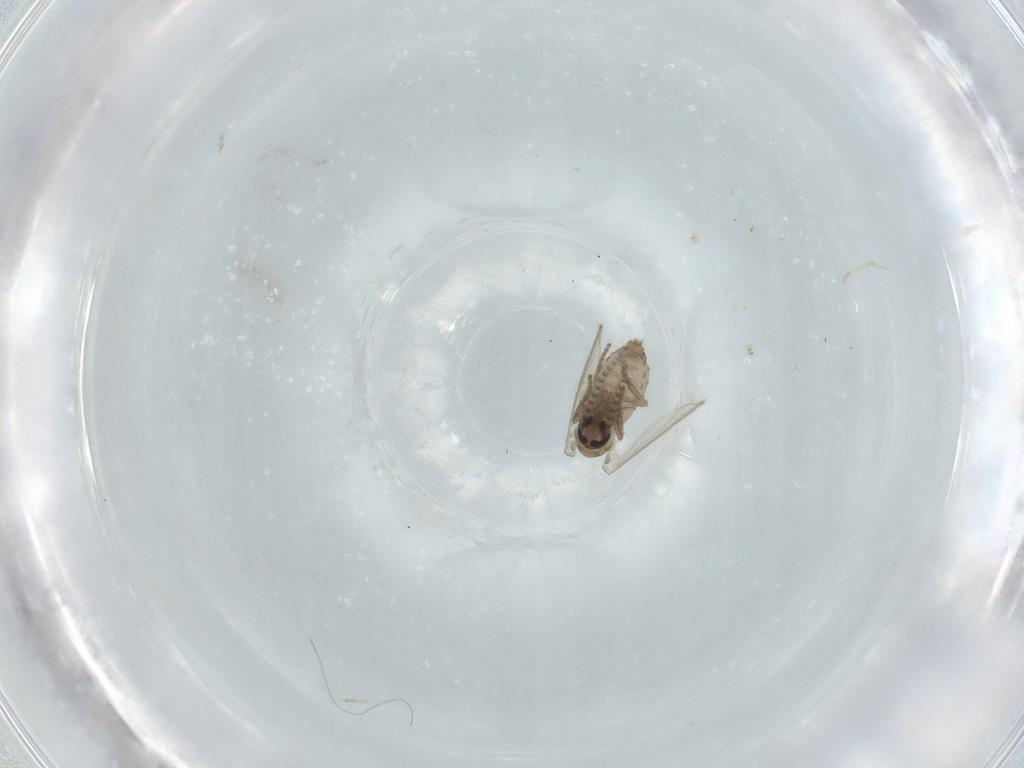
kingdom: Animalia
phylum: Arthropoda
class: Insecta
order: Diptera
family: Psychodidae
